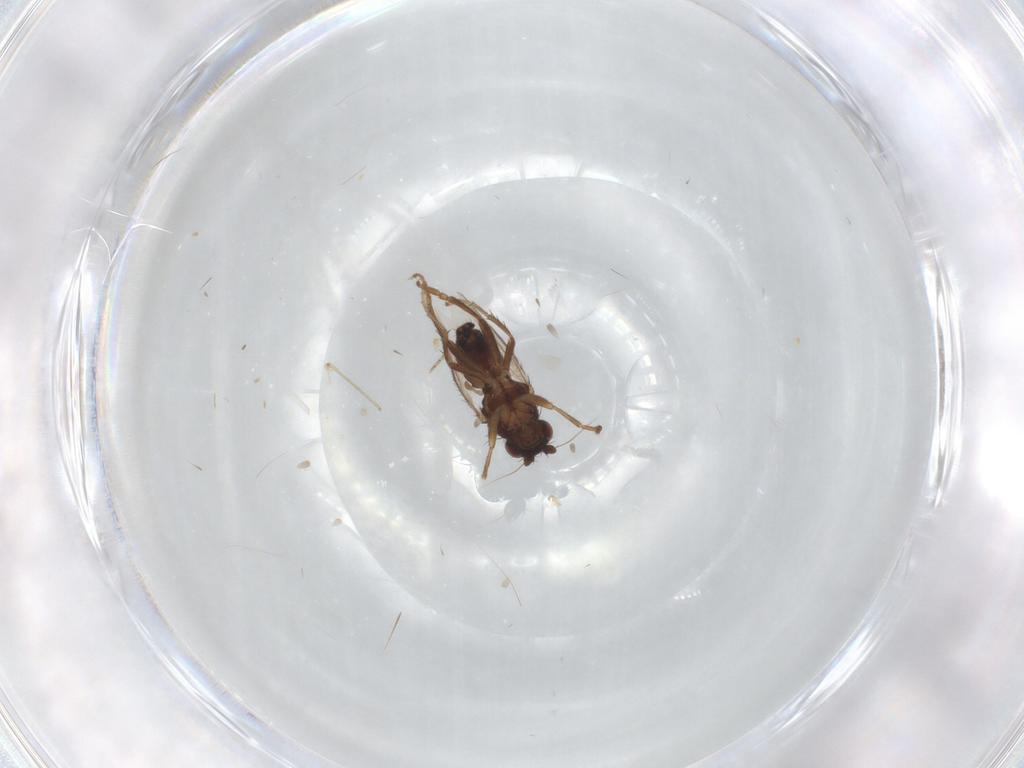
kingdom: Animalia
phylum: Arthropoda
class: Insecta
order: Diptera
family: Sphaeroceridae
